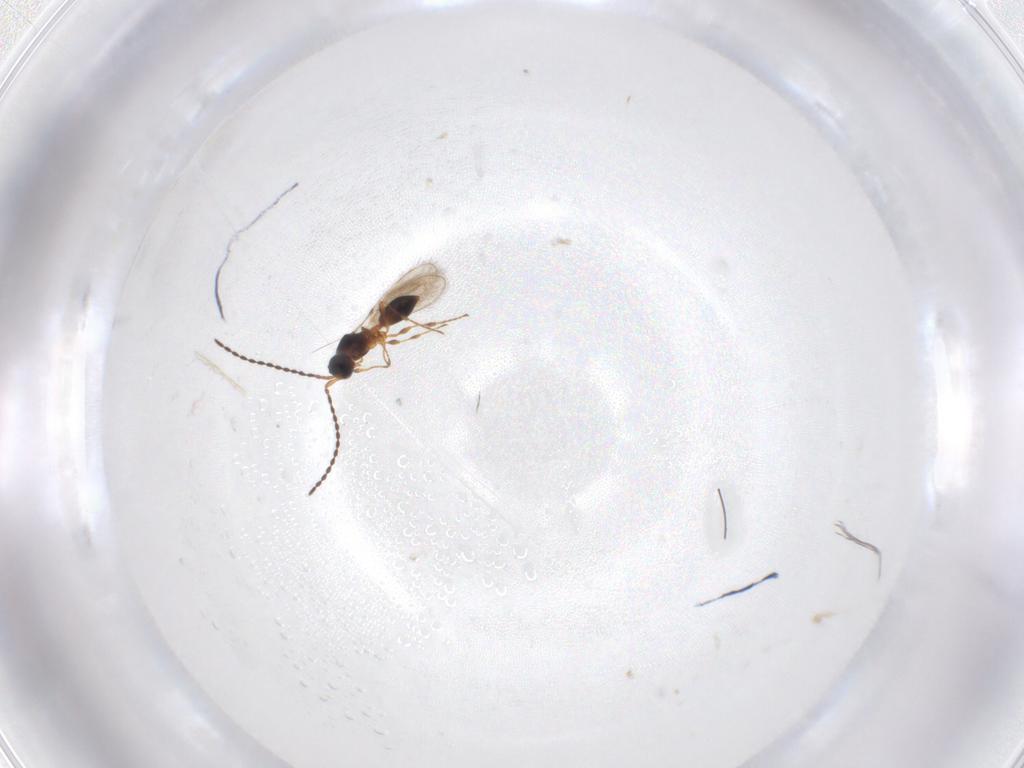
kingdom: Animalia
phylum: Arthropoda
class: Insecta
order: Hymenoptera
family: Diapriidae
